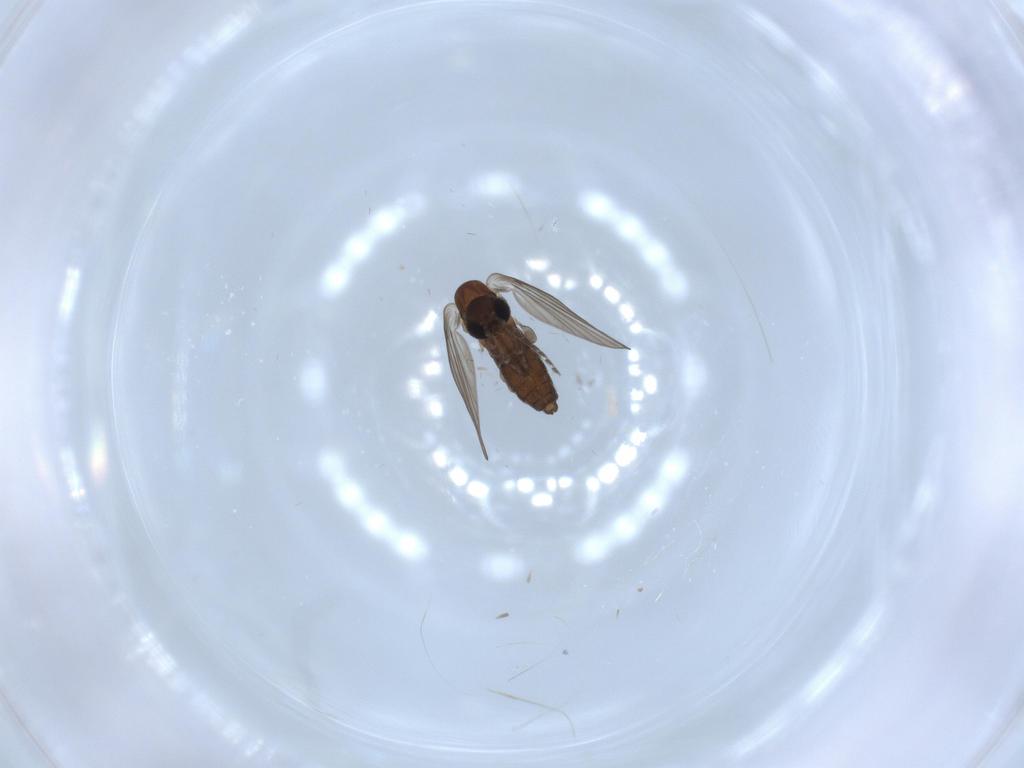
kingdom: Animalia
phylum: Arthropoda
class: Insecta
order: Diptera
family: Psychodidae
